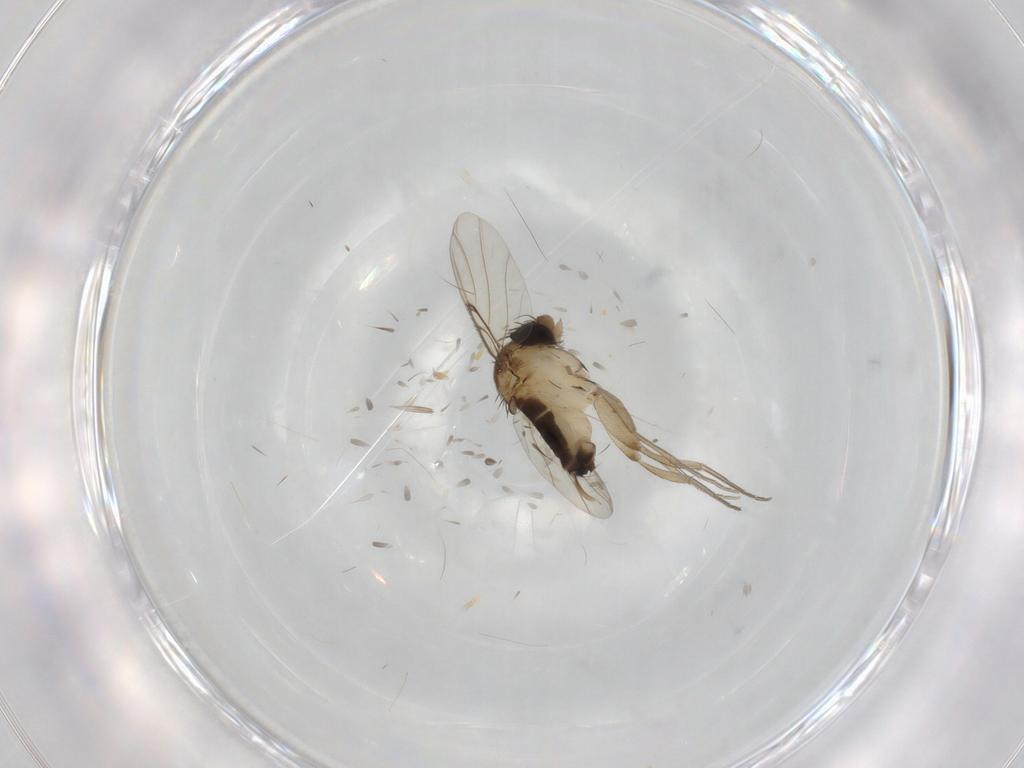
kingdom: Animalia
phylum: Arthropoda
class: Insecta
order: Diptera
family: Phoridae
